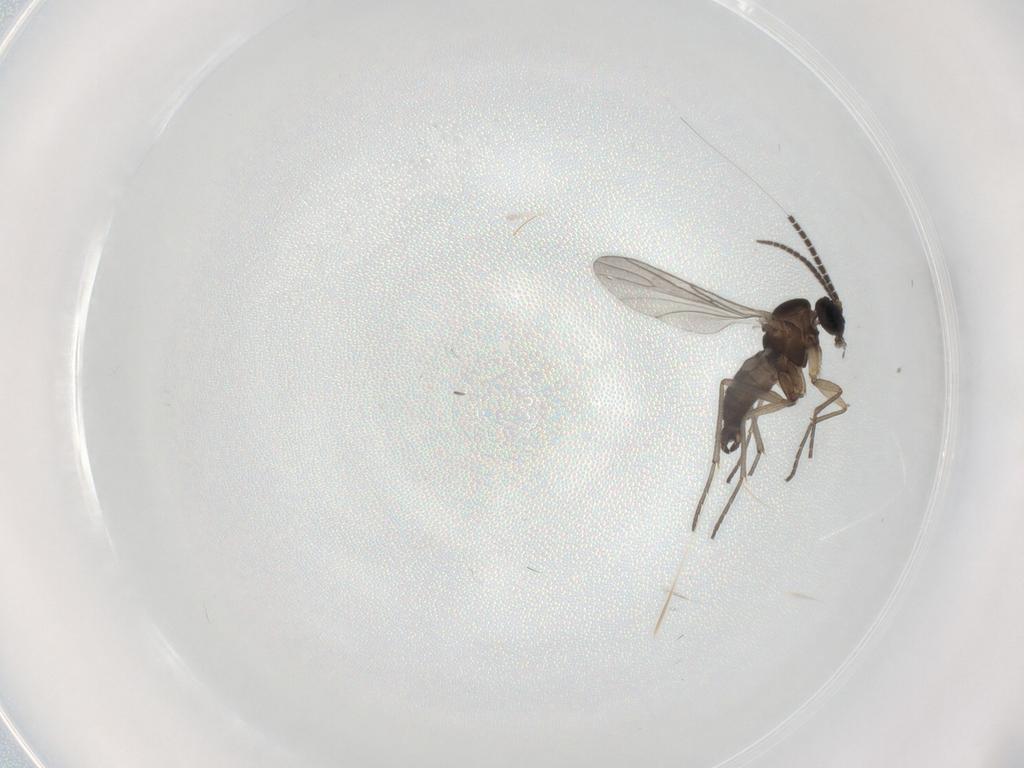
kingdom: Animalia
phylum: Arthropoda
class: Insecta
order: Diptera
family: Sciaridae
